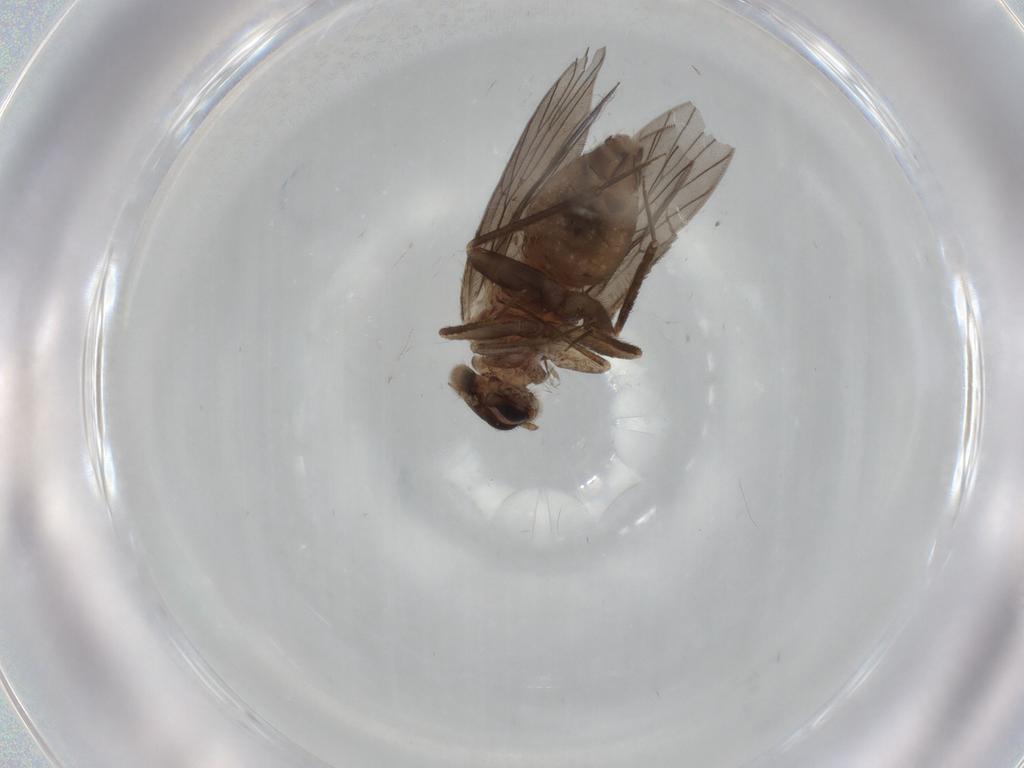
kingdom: Animalia
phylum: Arthropoda
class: Insecta
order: Psocodea
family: Lepidopsocidae
